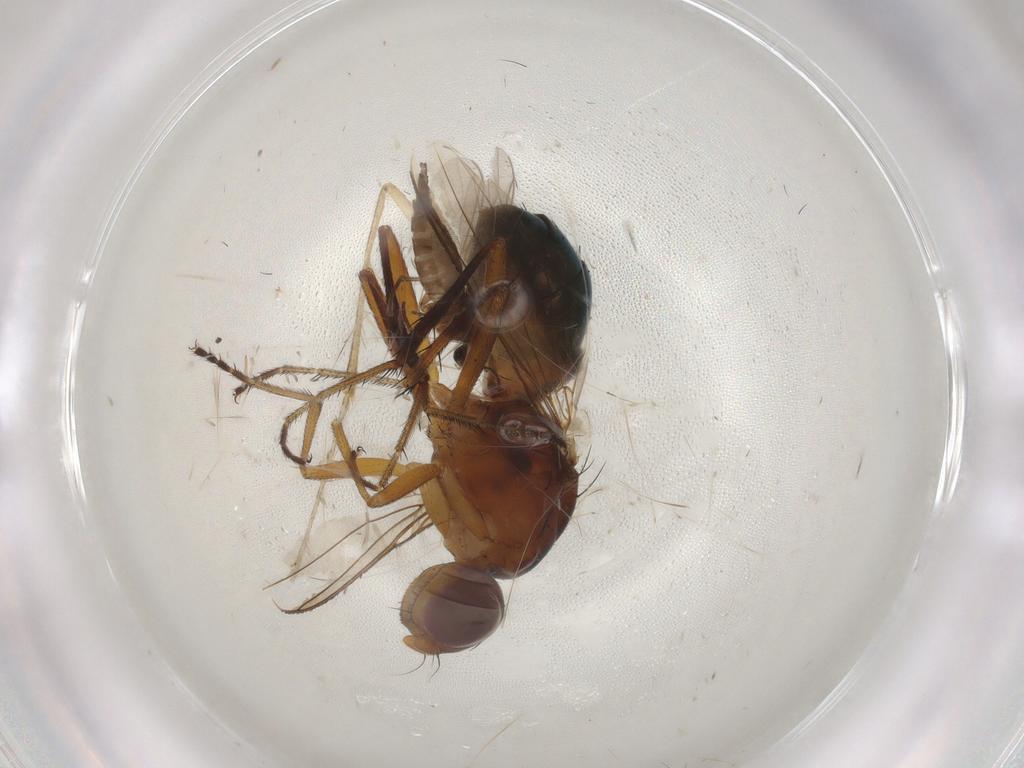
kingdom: Animalia
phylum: Arthropoda
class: Insecta
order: Diptera
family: Sepsidae
